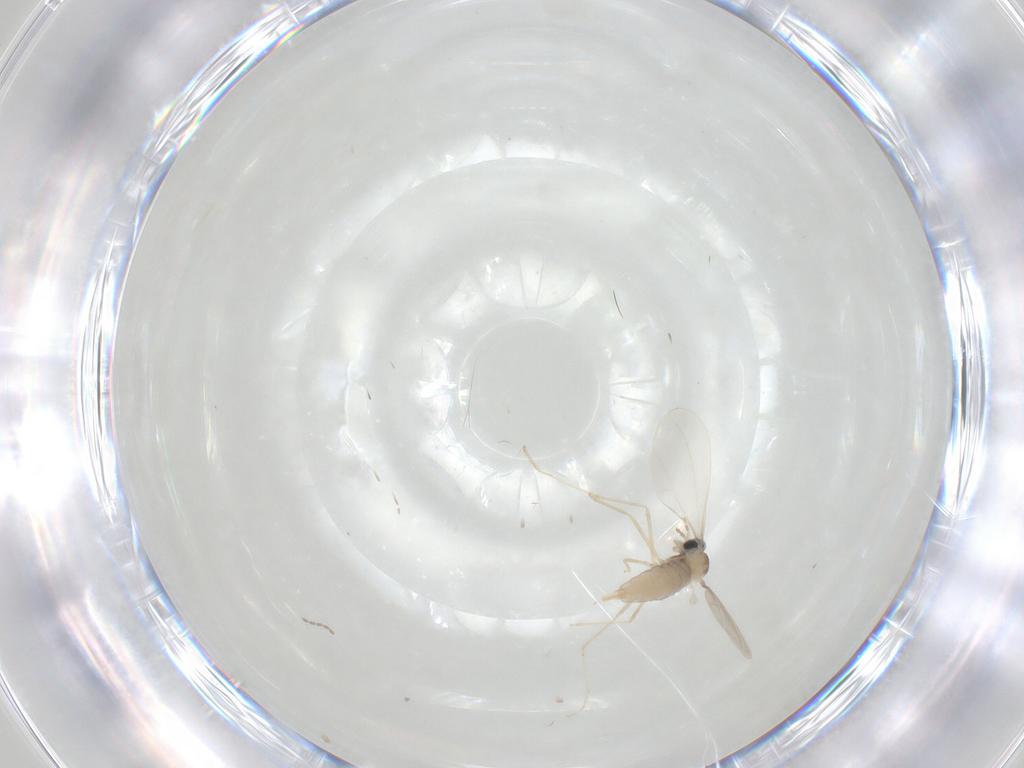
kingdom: Animalia
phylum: Arthropoda
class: Insecta
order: Diptera
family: Cecidomyiidae
